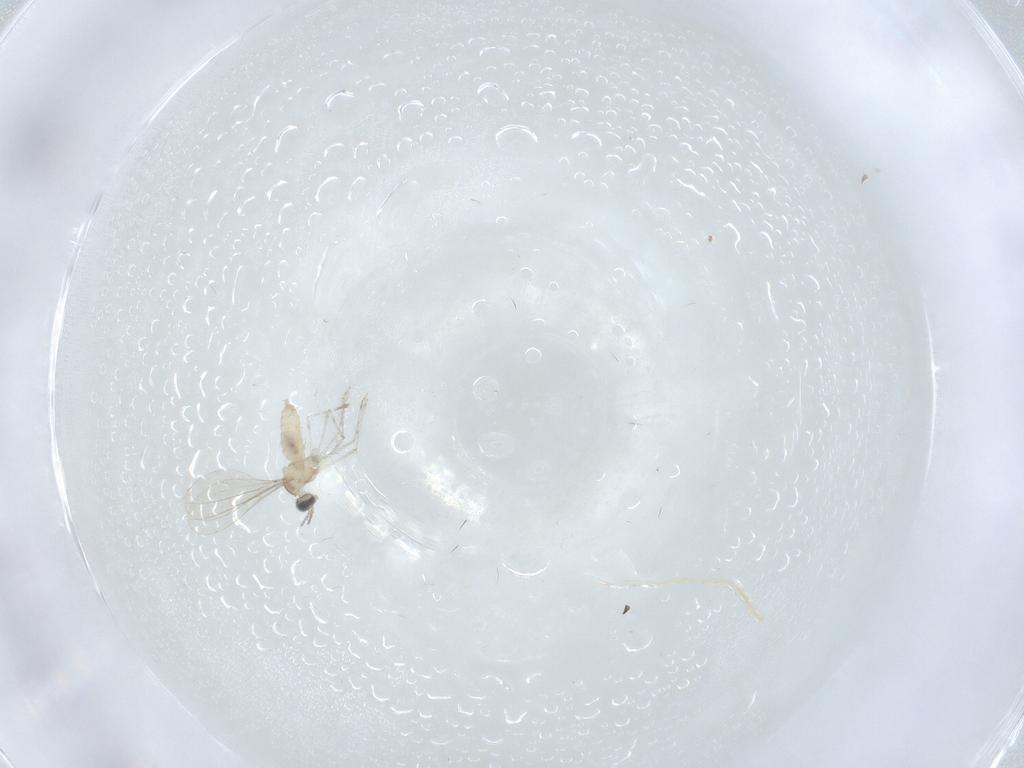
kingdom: Animalia
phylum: Arthropoda
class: Insecta
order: Diptera
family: Cecidomyiidae
